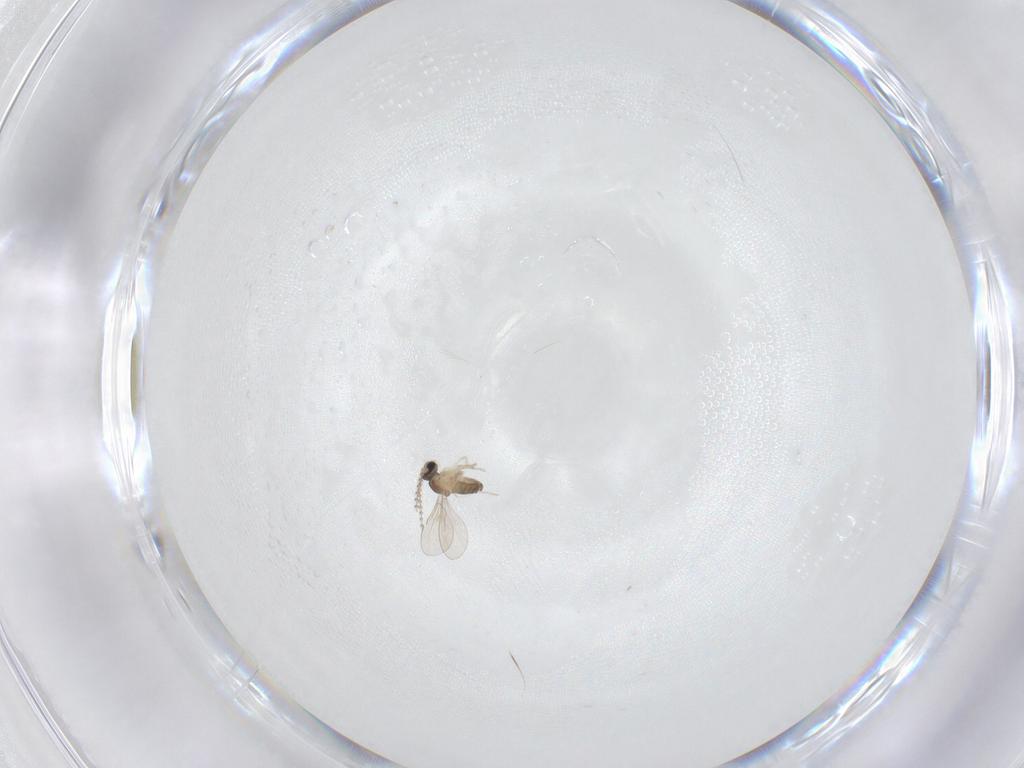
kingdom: Animalia
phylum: Arthropoda
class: Insecta
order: Diptera
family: Cecidomyiidae
